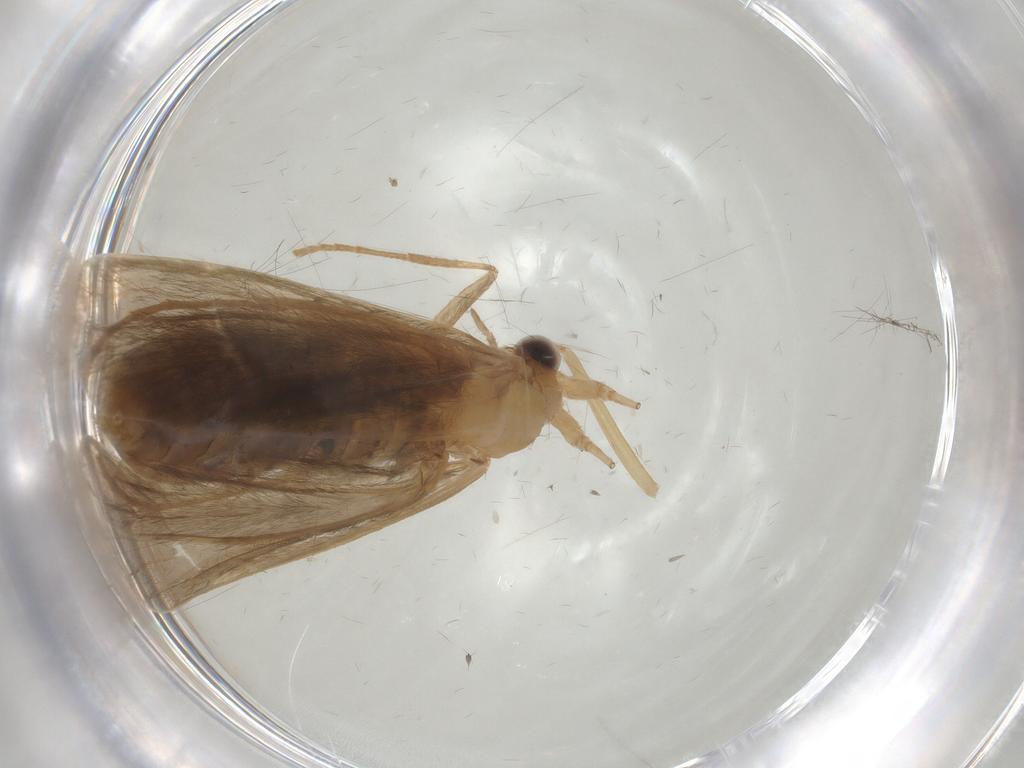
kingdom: Animalia
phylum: Arthropoda
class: Insecta
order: Trichoptera
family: Leptoceridae
